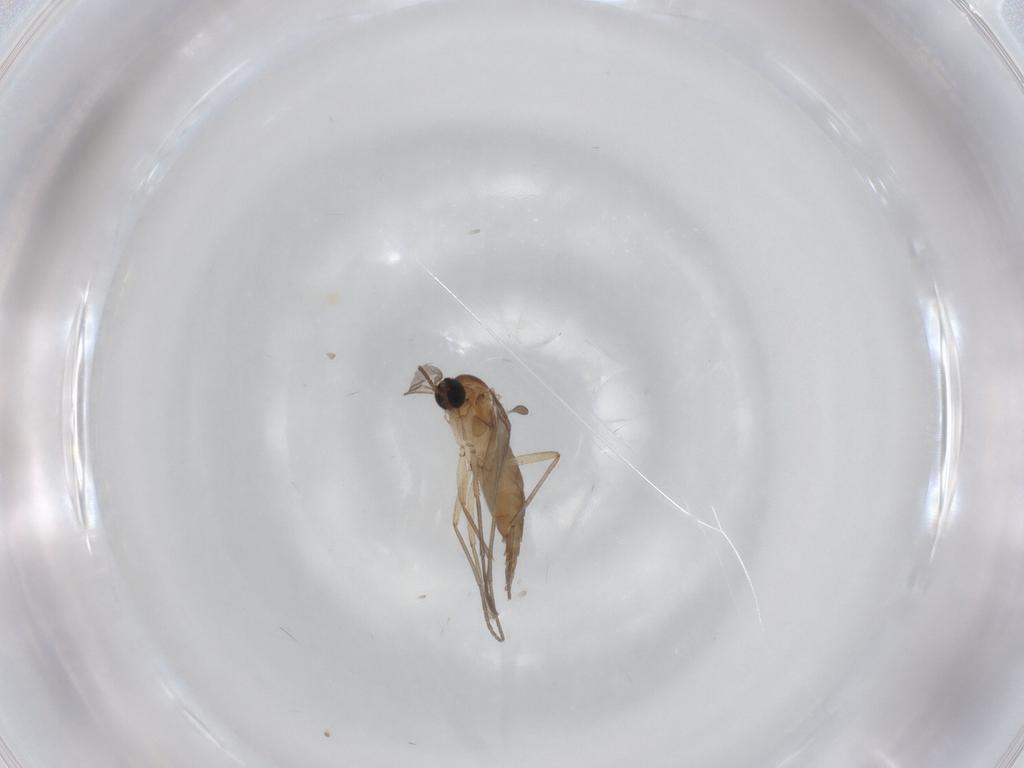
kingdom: Animalia
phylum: Arthropoda
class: Insecta
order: Diptera
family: Sciaridae
